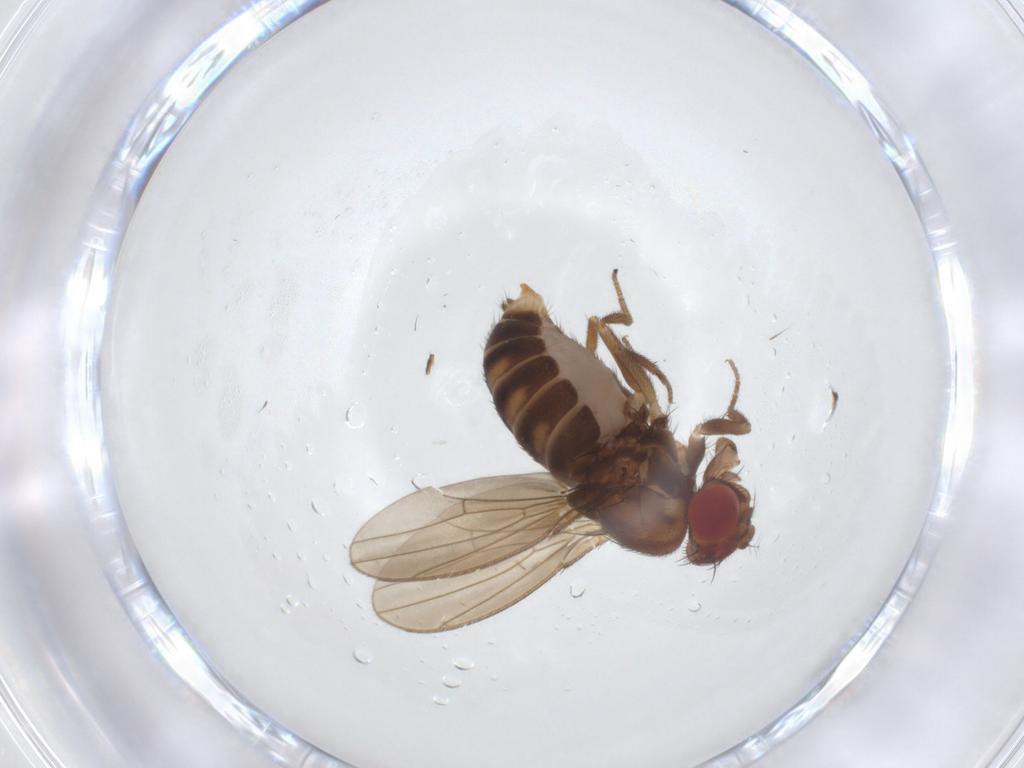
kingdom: Animalia
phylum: Arthropoda
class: Insecta
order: Diptera
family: Drosophilidae
